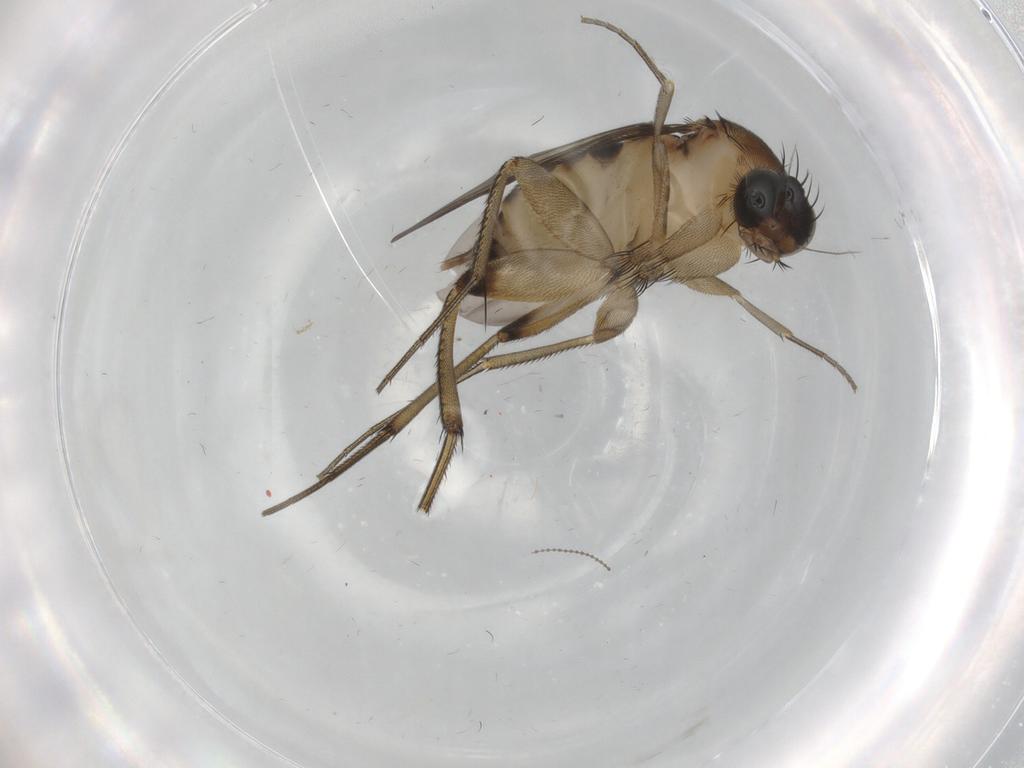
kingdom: Animalia
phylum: Arthropoda
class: Insecta
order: Diptera
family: Phoridae
